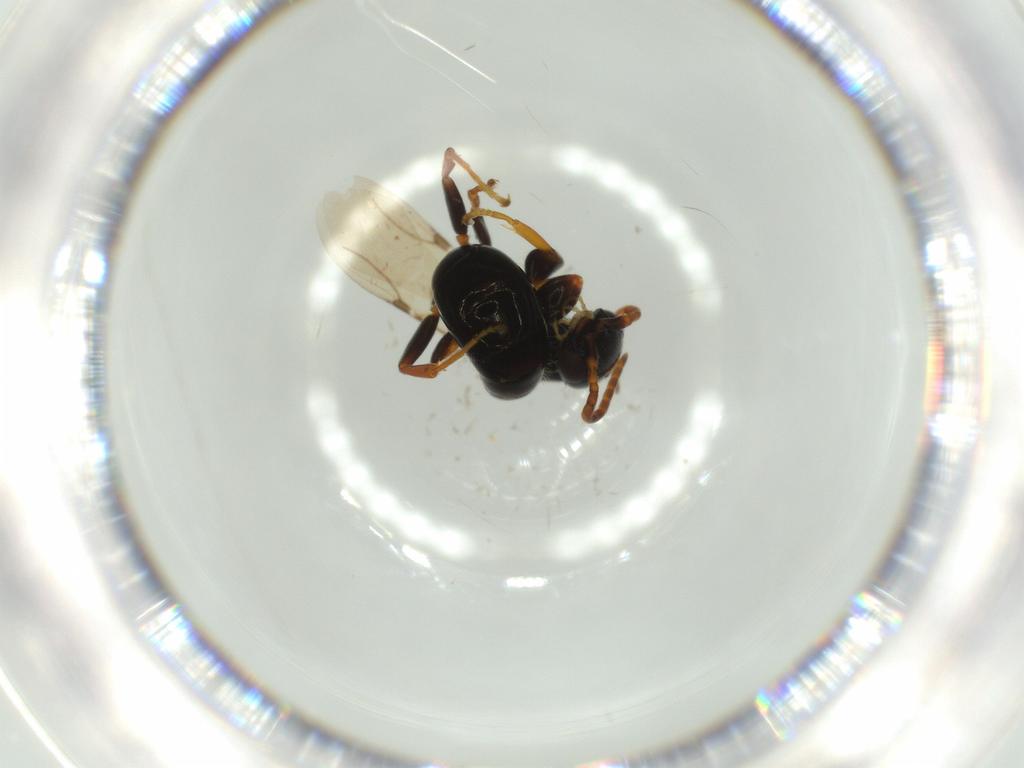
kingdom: Animalia
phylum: Arthropoda
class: Insecta
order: Hymenoptera
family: Bethylidae
